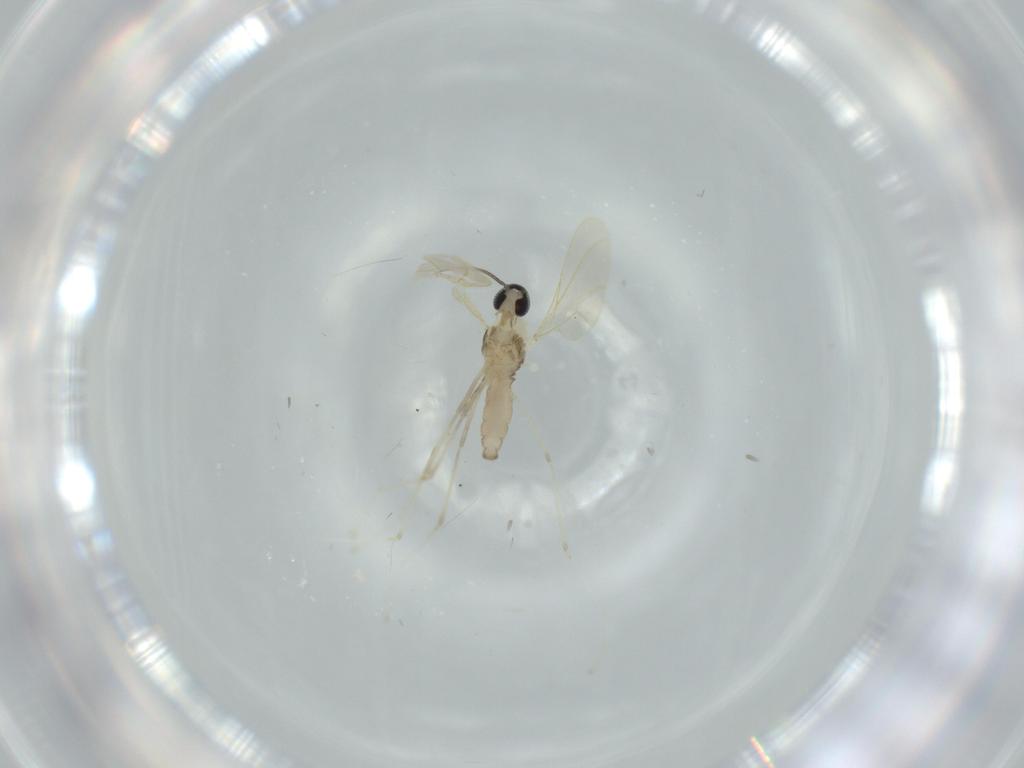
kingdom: Animalia
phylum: Arthropoda
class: Insecta
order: Diptera
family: Cecidomyiidae
